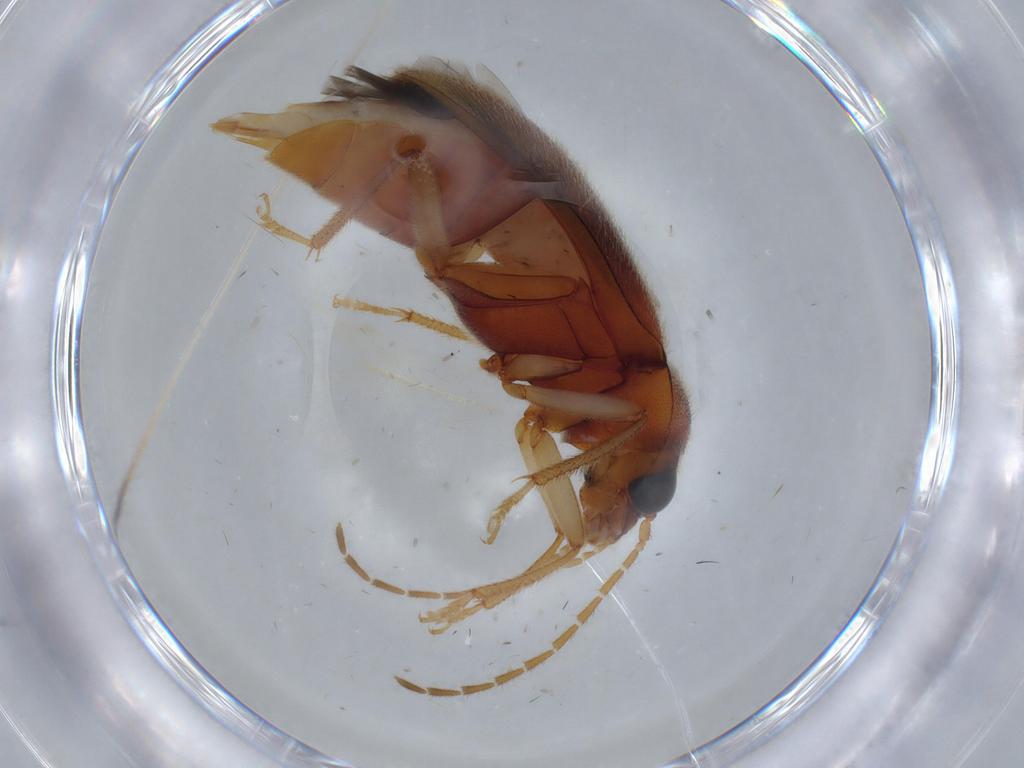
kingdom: Animalia
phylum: Arthropoda
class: Insecta
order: Coleoptera
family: Ptilodactylidae
